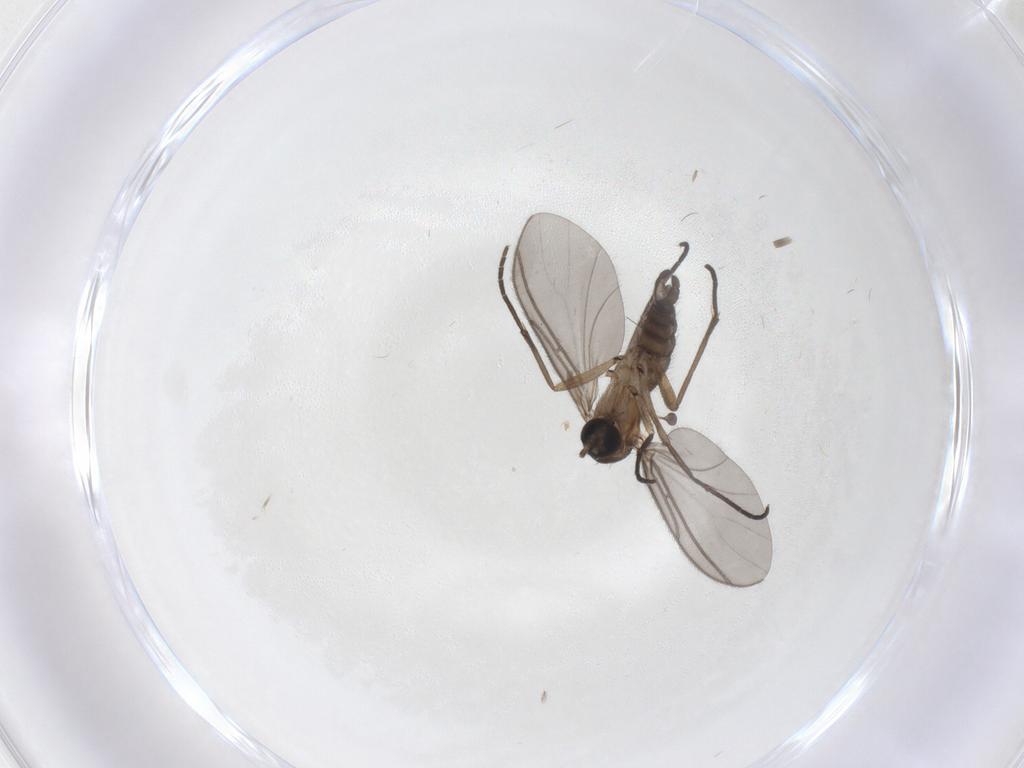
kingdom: Animalia
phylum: Arthropoda
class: Insecta
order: Diptera
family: Sciaridae
